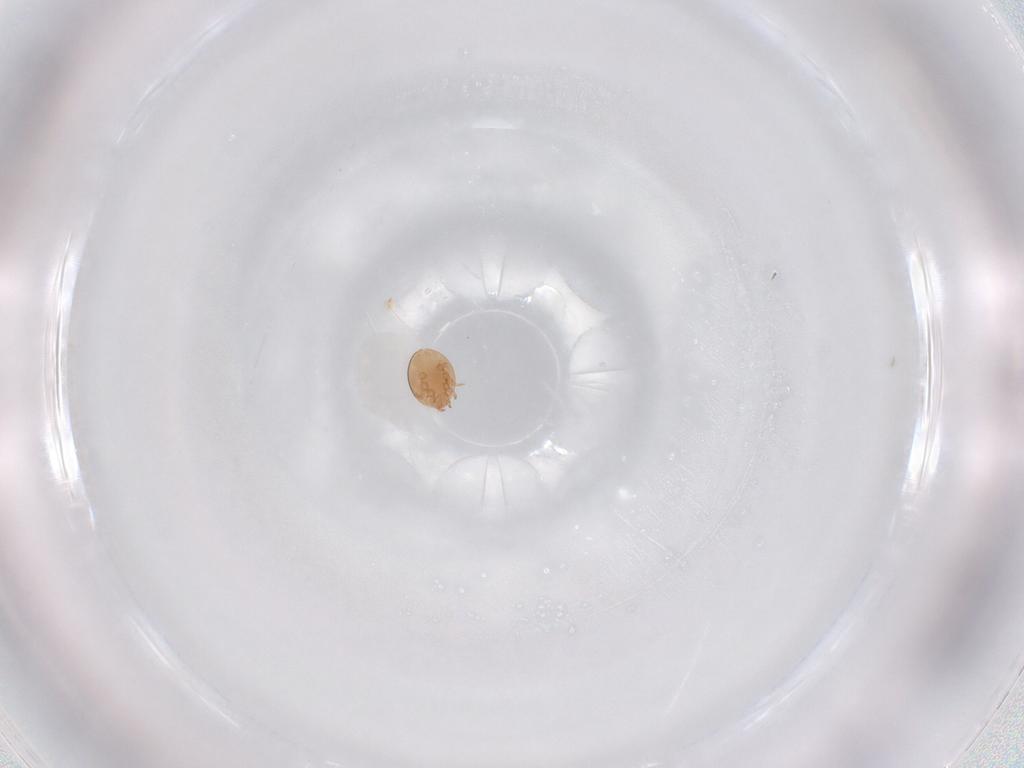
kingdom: Animalia
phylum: Arthropoda
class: Arachnida
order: Mesostigmata
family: Trematuridae
